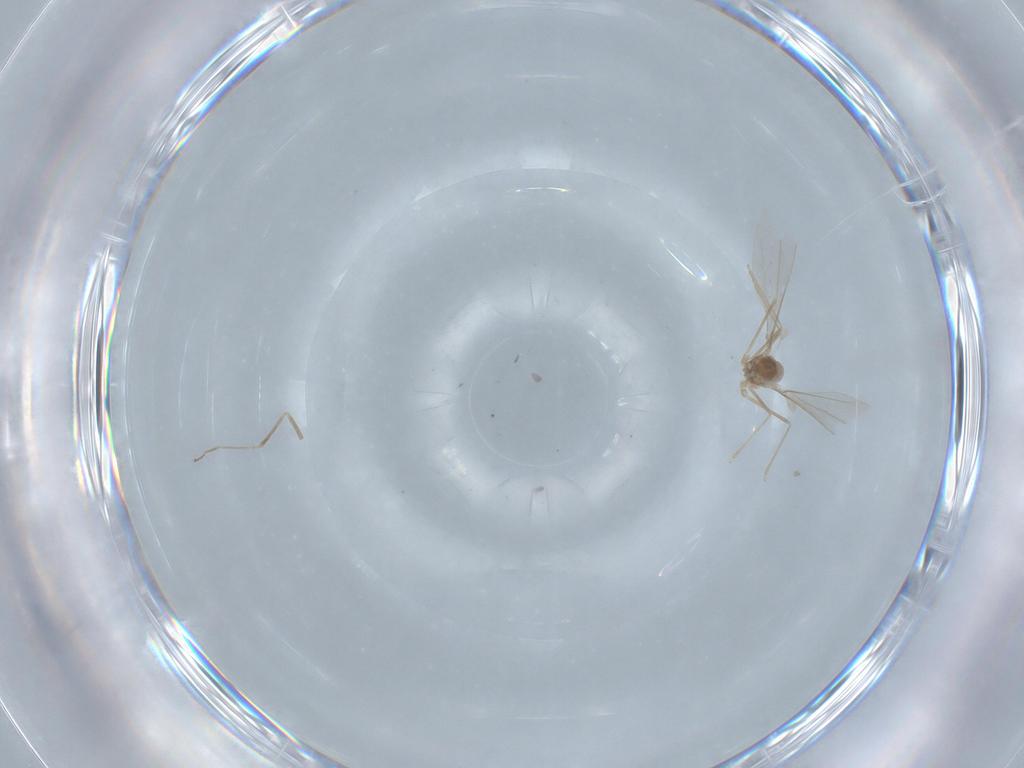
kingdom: Animalia
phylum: Arthropoda
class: Insecta
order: Diptera
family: Cecidomyiidae
